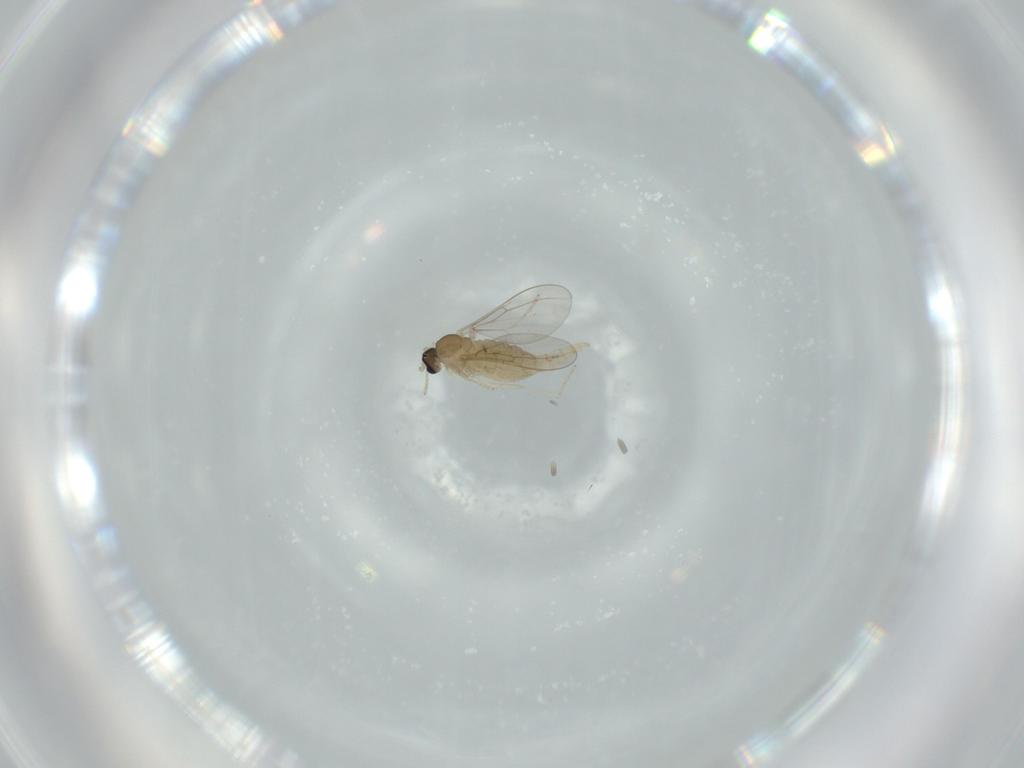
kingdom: Animalia
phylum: Arthropoda
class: Insecta
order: Diptera
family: Cecidomyiidae
